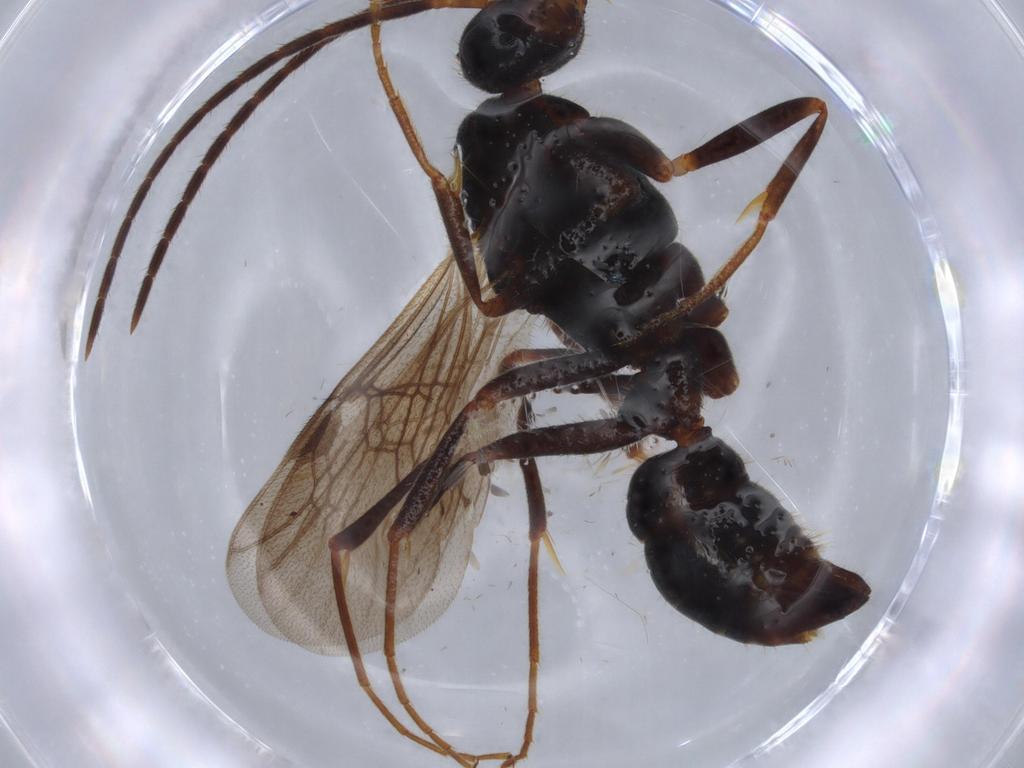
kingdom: Animalia
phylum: Arthropoda
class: Insecta
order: Hymenoptera
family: Formicidae
